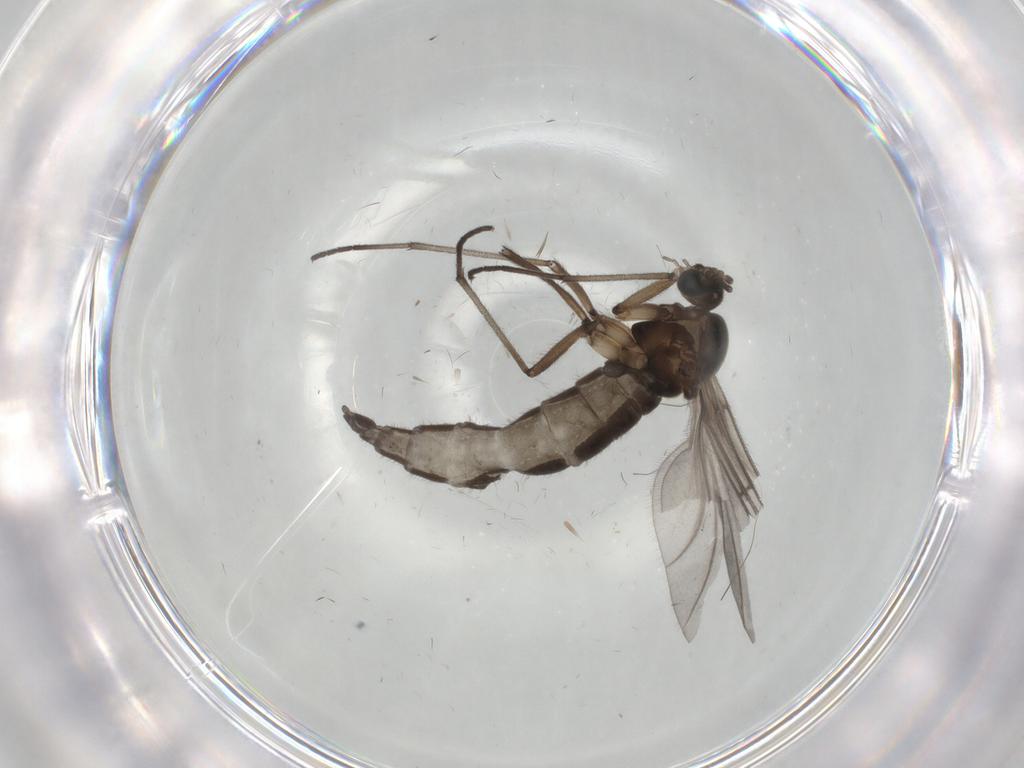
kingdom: Animalia
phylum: Arthropoda
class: Insecta
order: Diptera
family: Sciaridae
